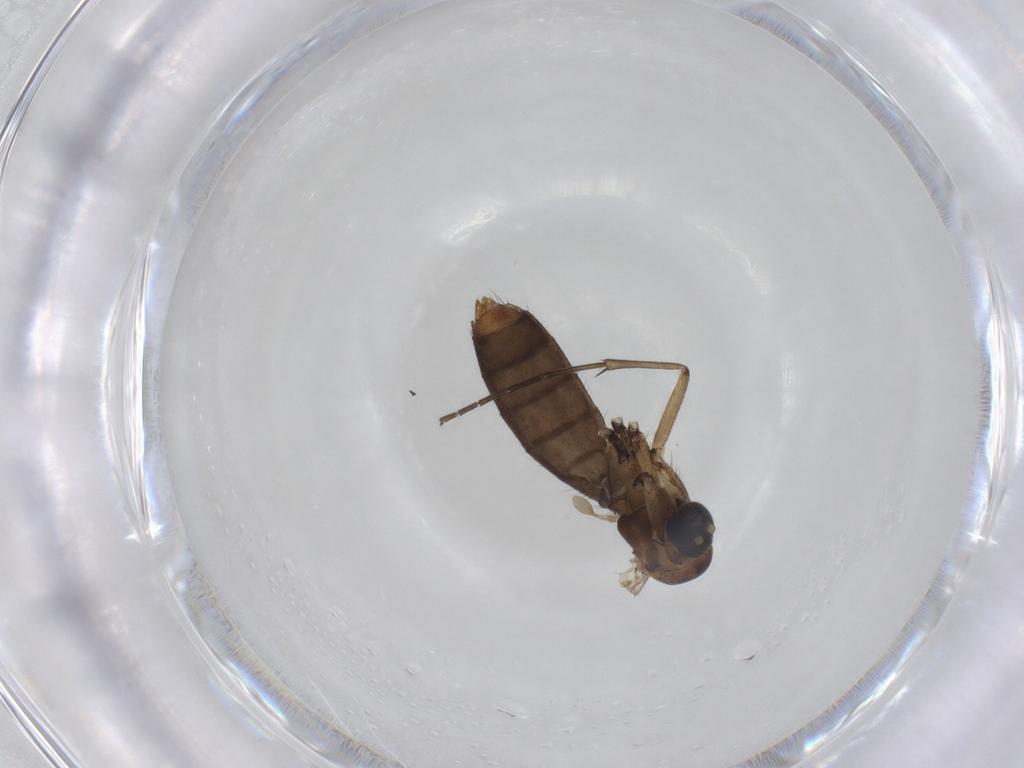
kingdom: Animalia
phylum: Arthropoda
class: Insecta
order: Diptera
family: Mycetophilidae
